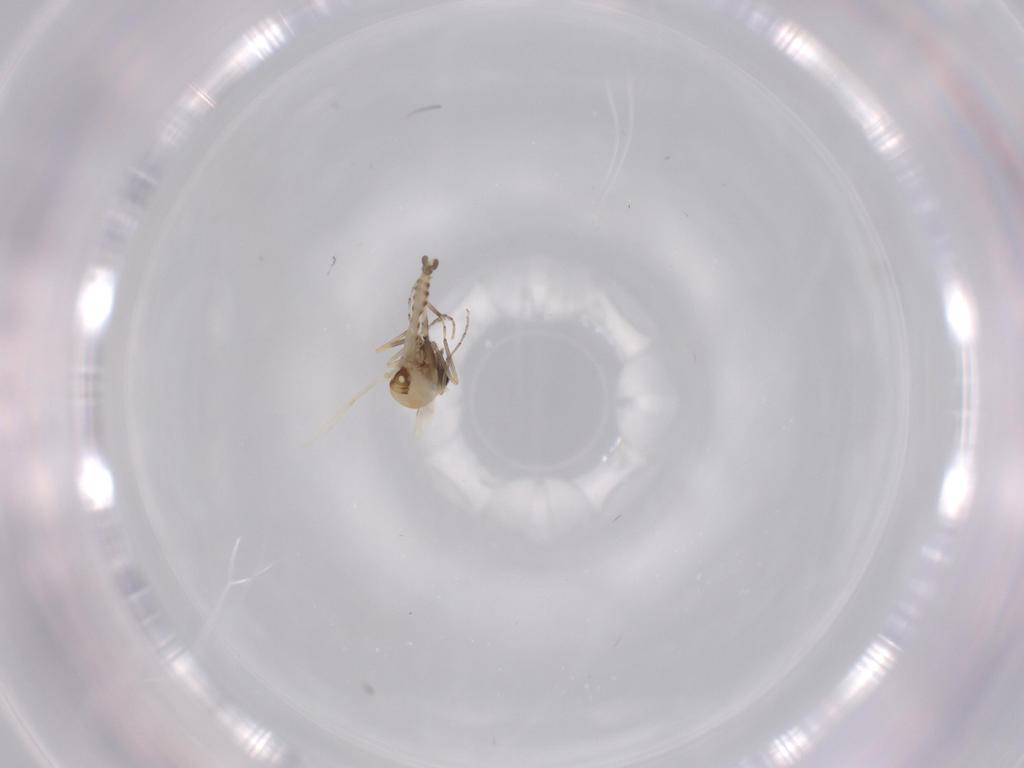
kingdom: Animalia
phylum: Arthropoda
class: Insecta
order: Diptera
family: Ceratopogonidae
